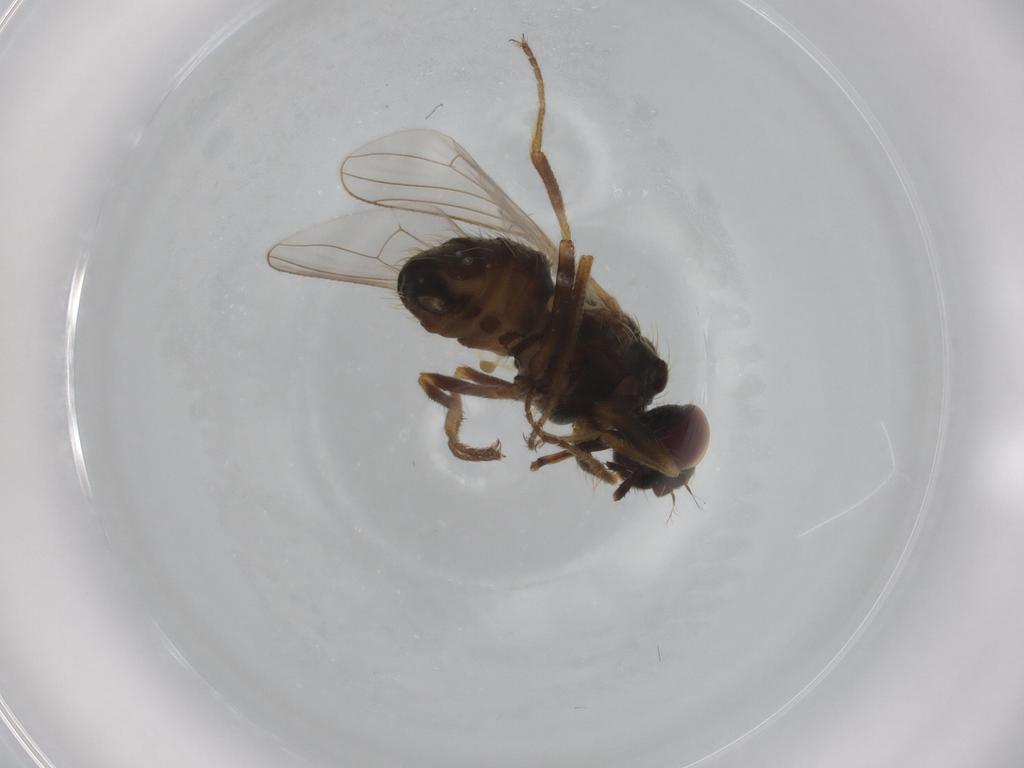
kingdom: Animalia
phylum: Arthropoda
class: Insecta
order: Diptera
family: Muscidae
